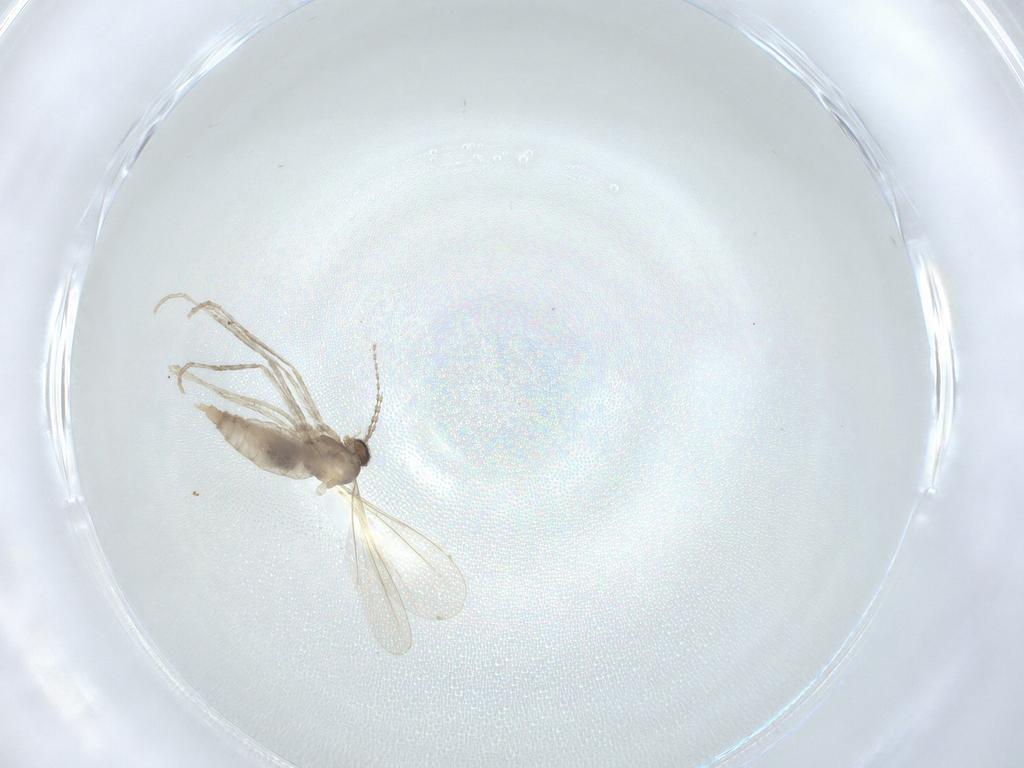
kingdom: Animalia
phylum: Arthropoda
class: Insecta
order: Diptera
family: Cecidomyiidae
